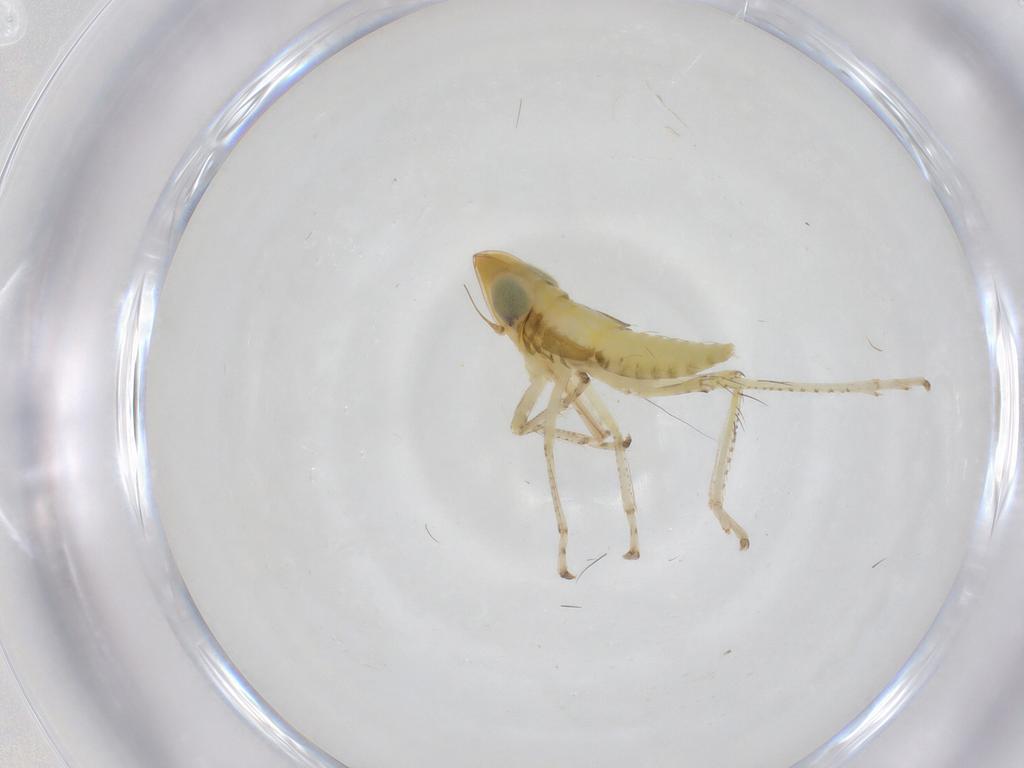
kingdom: Animalia
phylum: Arthropoda
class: Insecta
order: Hemiptera
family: Cicadellidae
